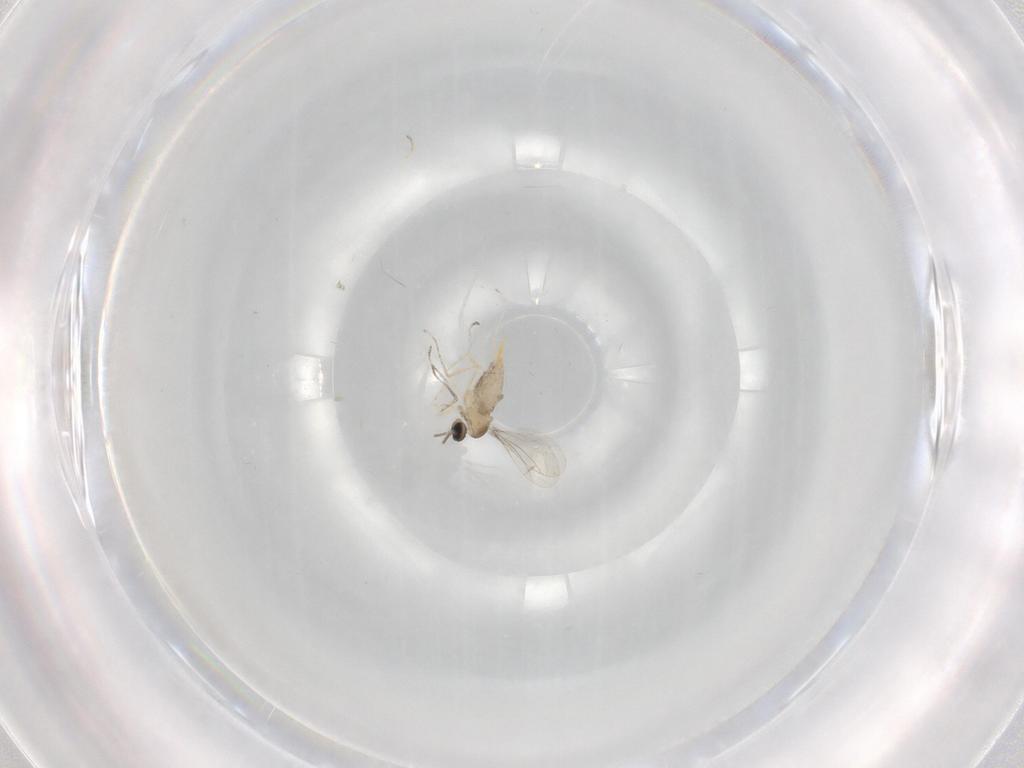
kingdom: Animalia
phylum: Arthropoda
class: Insecta
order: Diptera
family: Cecidomyiidae
